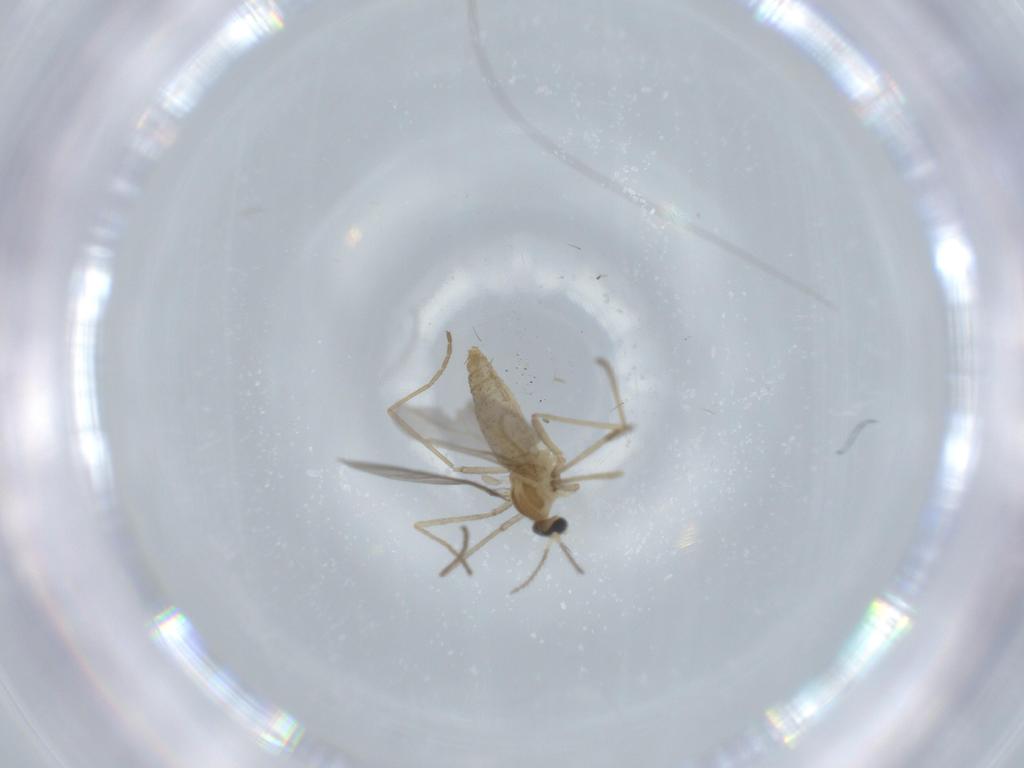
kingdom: Animalia
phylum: Arthropoda
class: Insecta
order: Diptera
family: Cecidomyiidae
